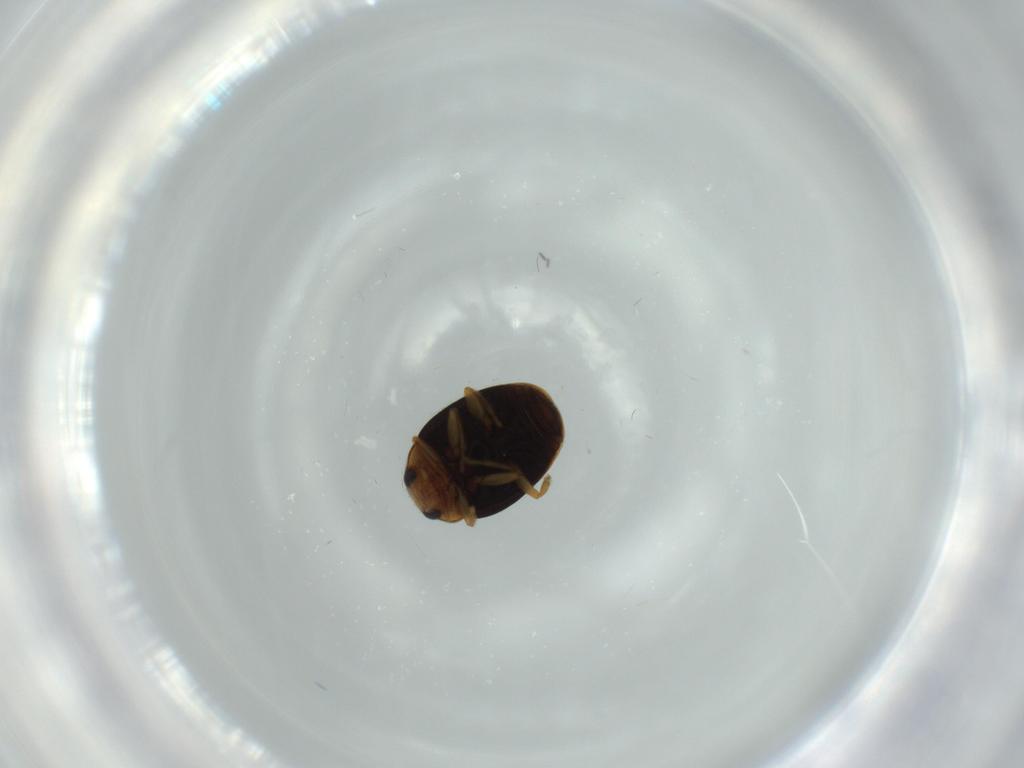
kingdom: Animalia
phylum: Arthropoda
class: Insecta
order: Coleoptera
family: Coccinellidae
